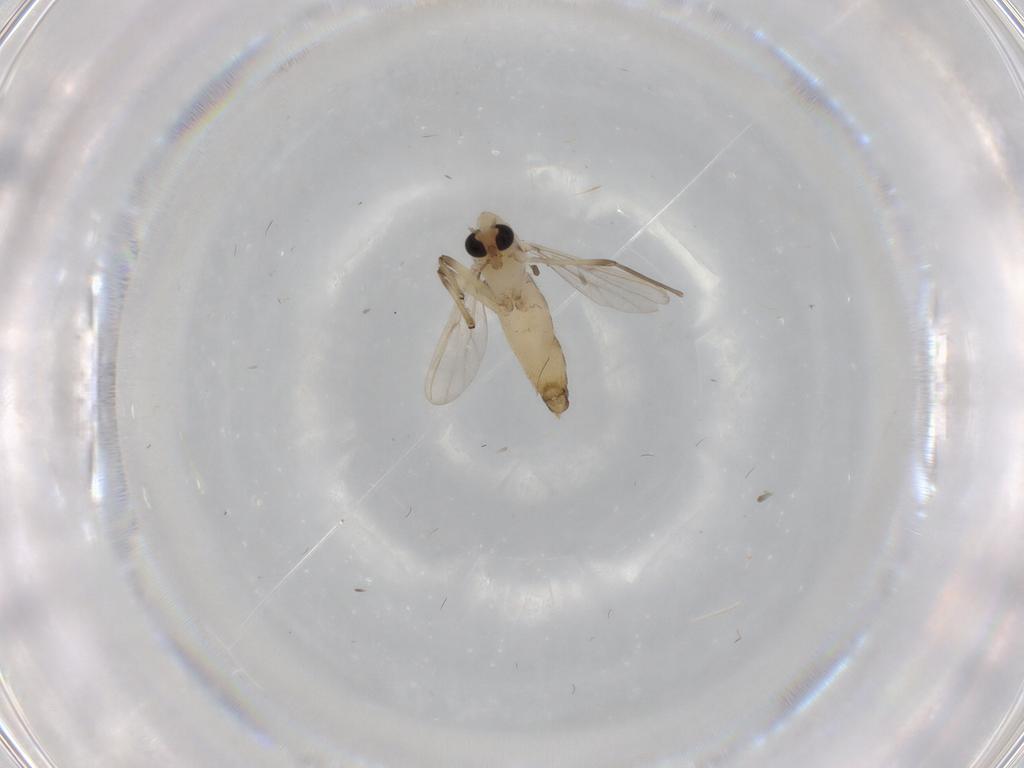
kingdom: Animalia
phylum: Arthropoda
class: Insecta
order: Diptera
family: Chironomidae
